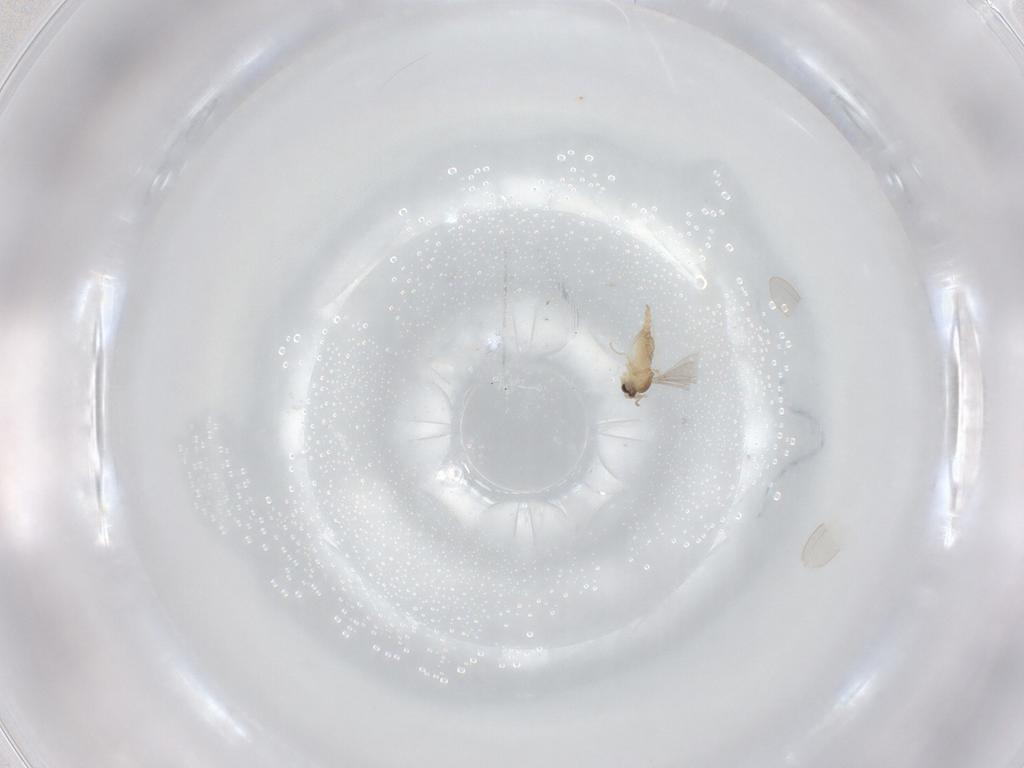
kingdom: Animalia
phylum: Arthropoda
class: Insecta
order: Diptera
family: Cecidomyiidae
